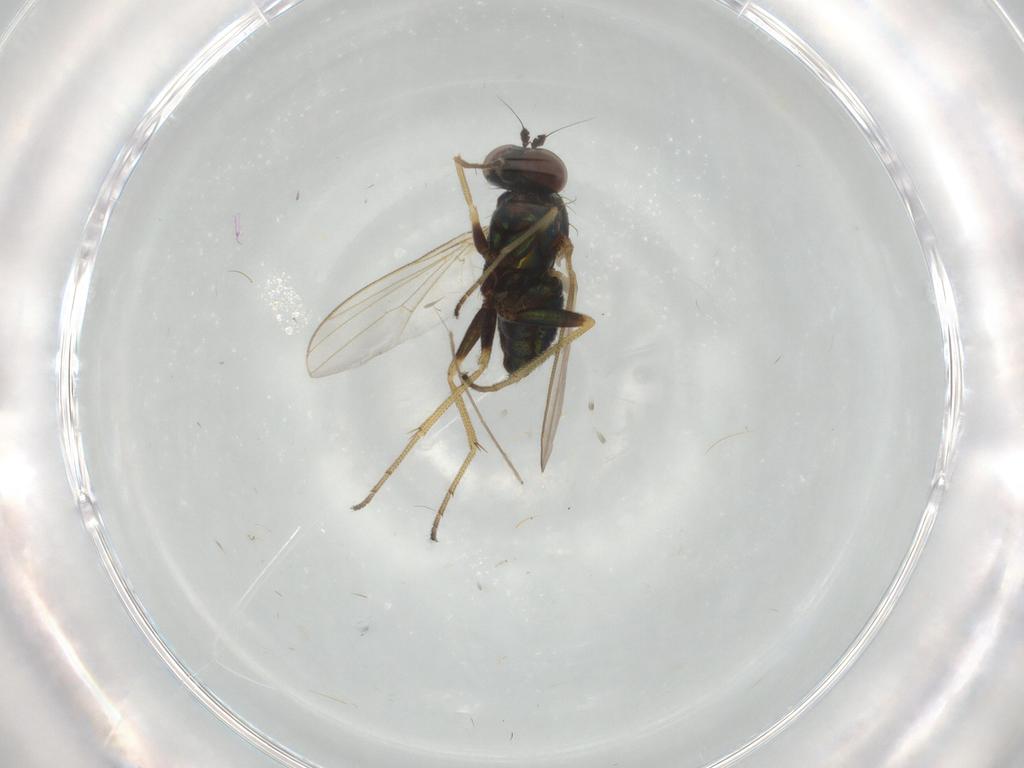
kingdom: Animalia
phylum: Arthropoda
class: Insecta
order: Diptera
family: Dolichopodidae
